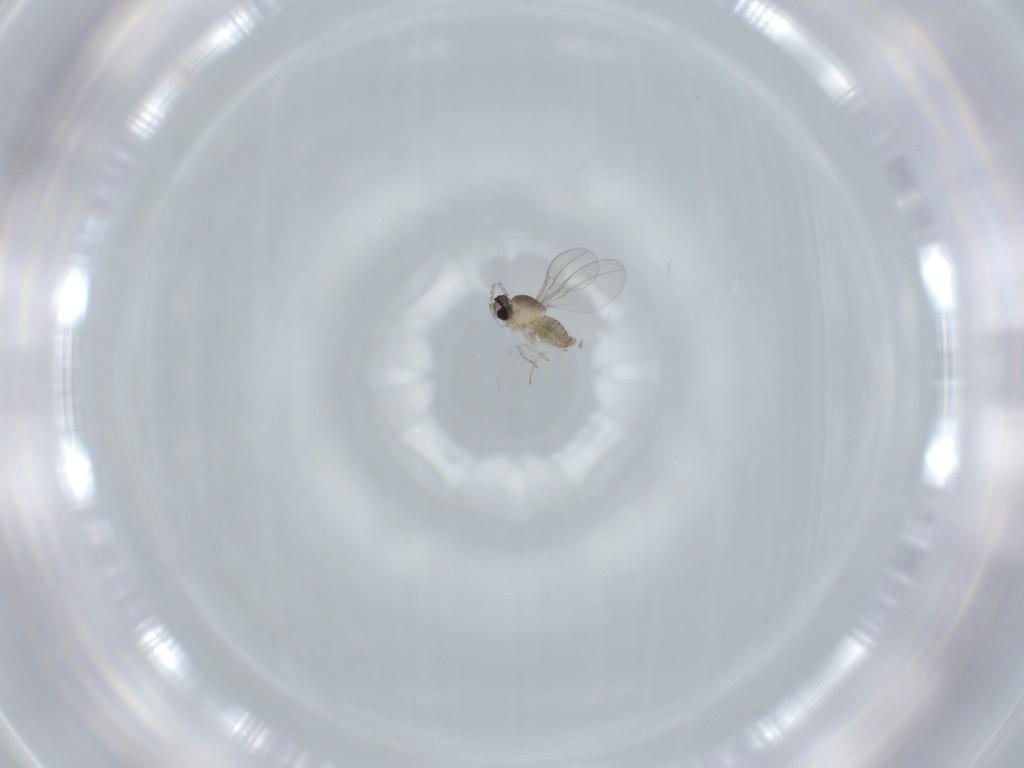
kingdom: Animalia
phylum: Arthropoda
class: Insecta
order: Diptera
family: Cecidomyiidae
